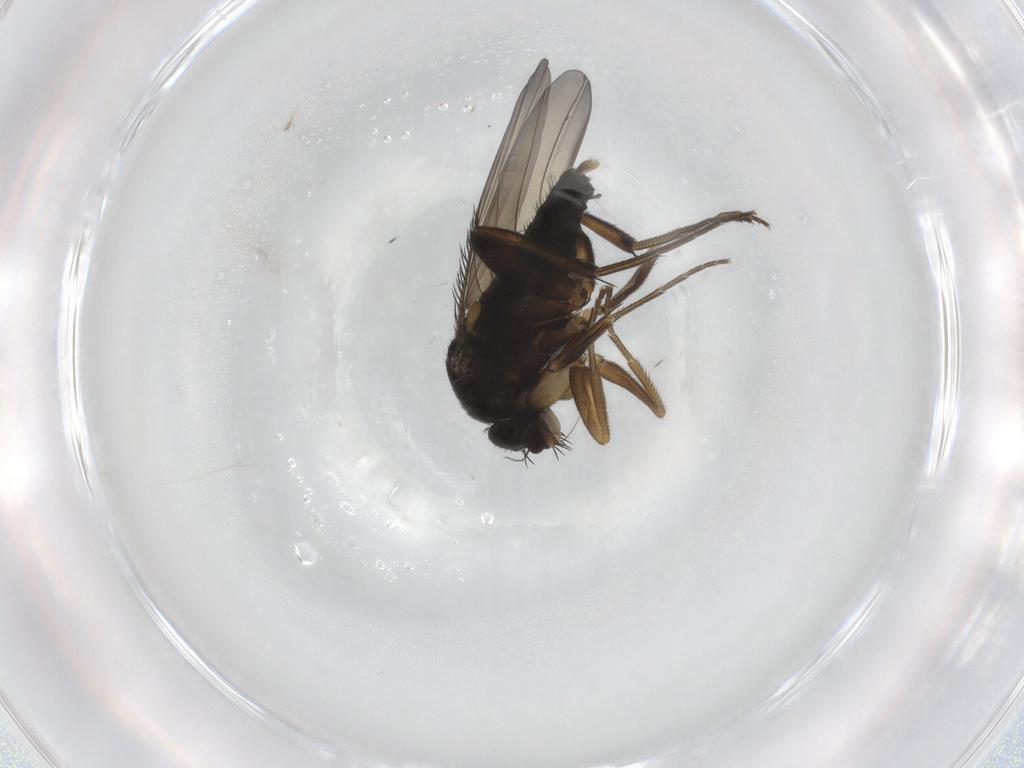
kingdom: Animalia
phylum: Arthropoda
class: Insecta
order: Diptera
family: Phoridae
